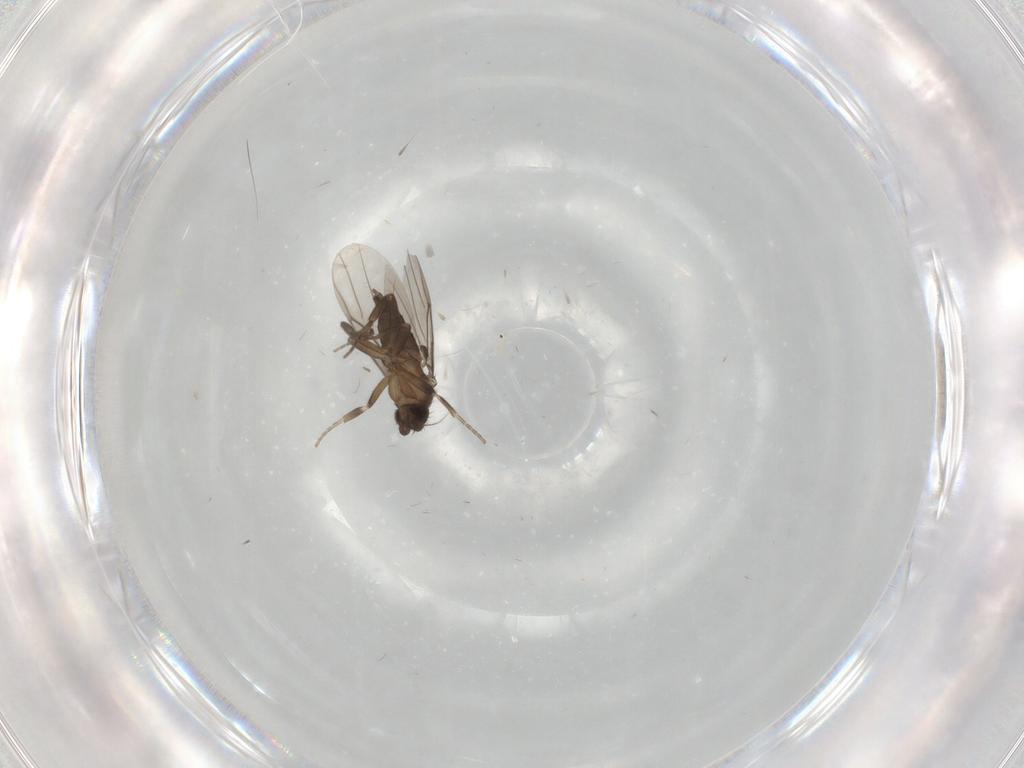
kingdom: Animalia
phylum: Arthropoda
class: Insecta
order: Diptera
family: Phoridae
